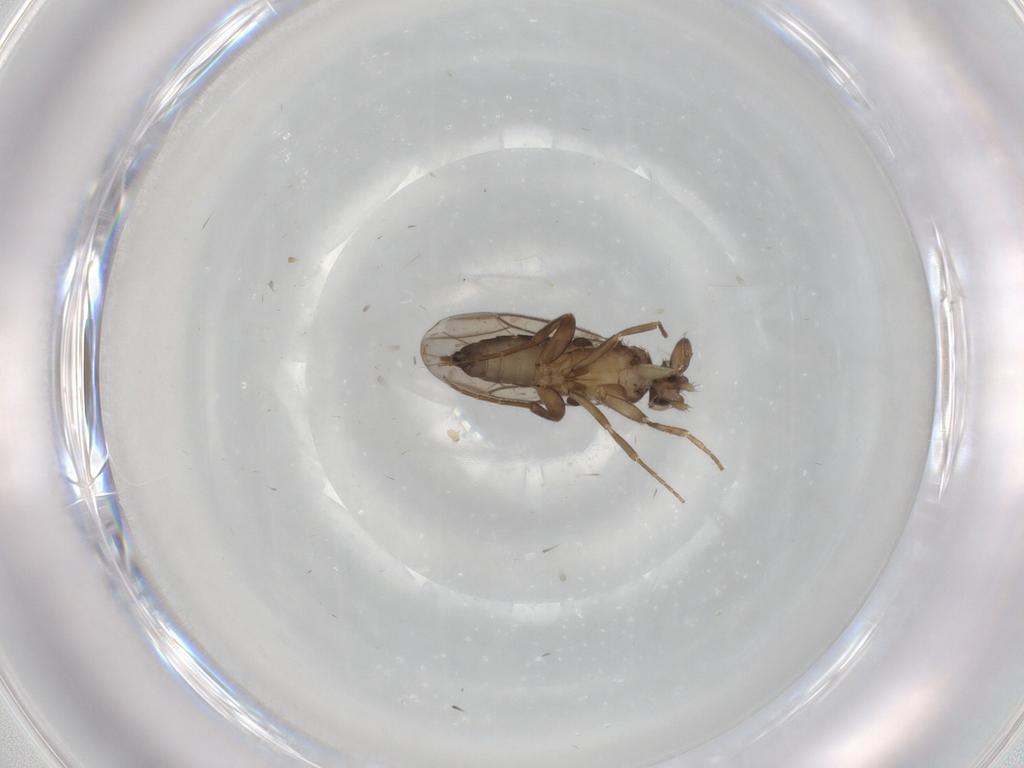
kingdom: Animalia
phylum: Arthropoda
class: Insecta
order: Diptera
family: Phoridae
